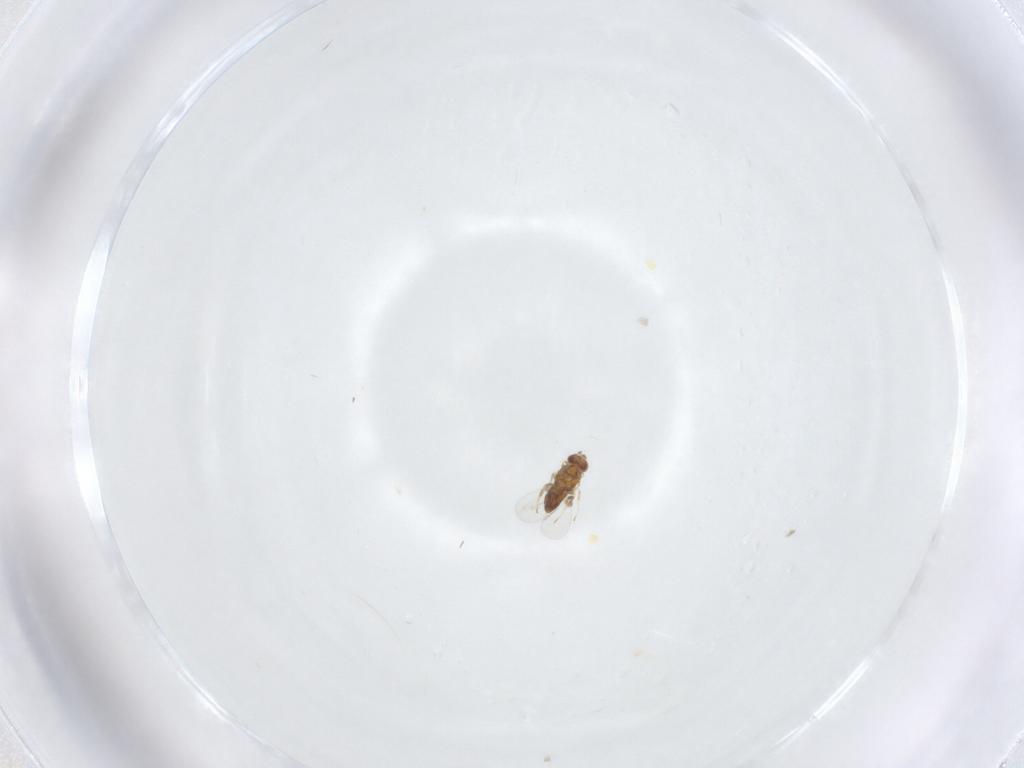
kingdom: Animalia
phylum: Arthropoda
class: Insecta
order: Hymenoptera
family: Trichogrammatidae
